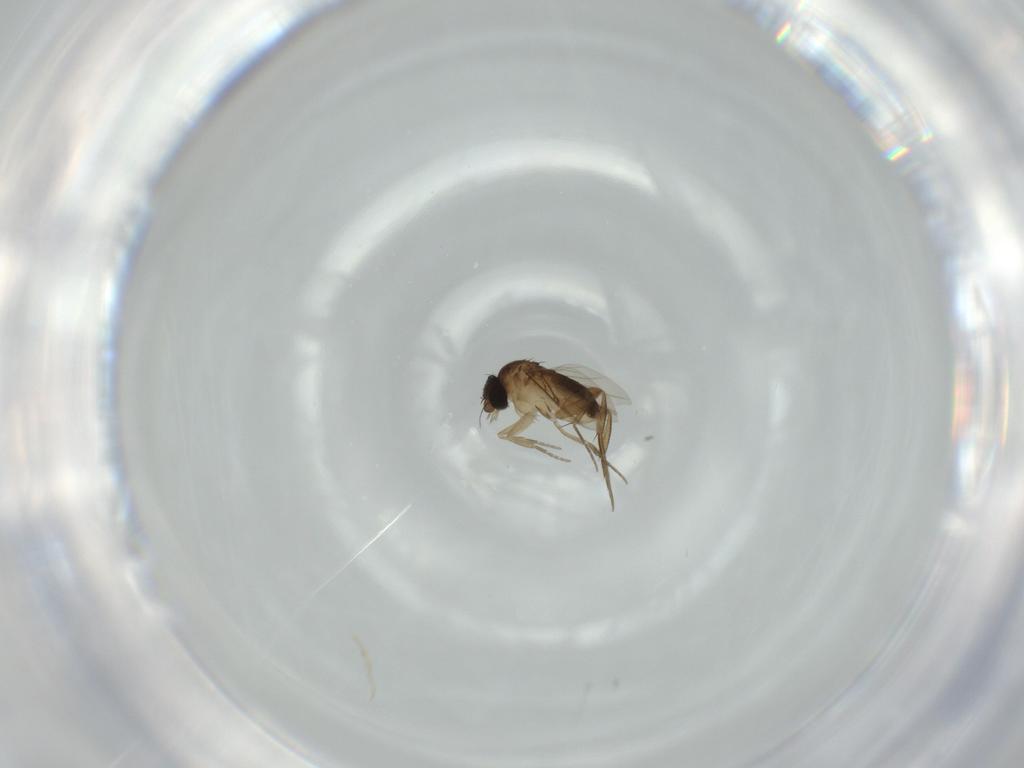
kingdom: Animalia
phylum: Arthropoda
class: Insecta
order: Diptera
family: Phoridae
